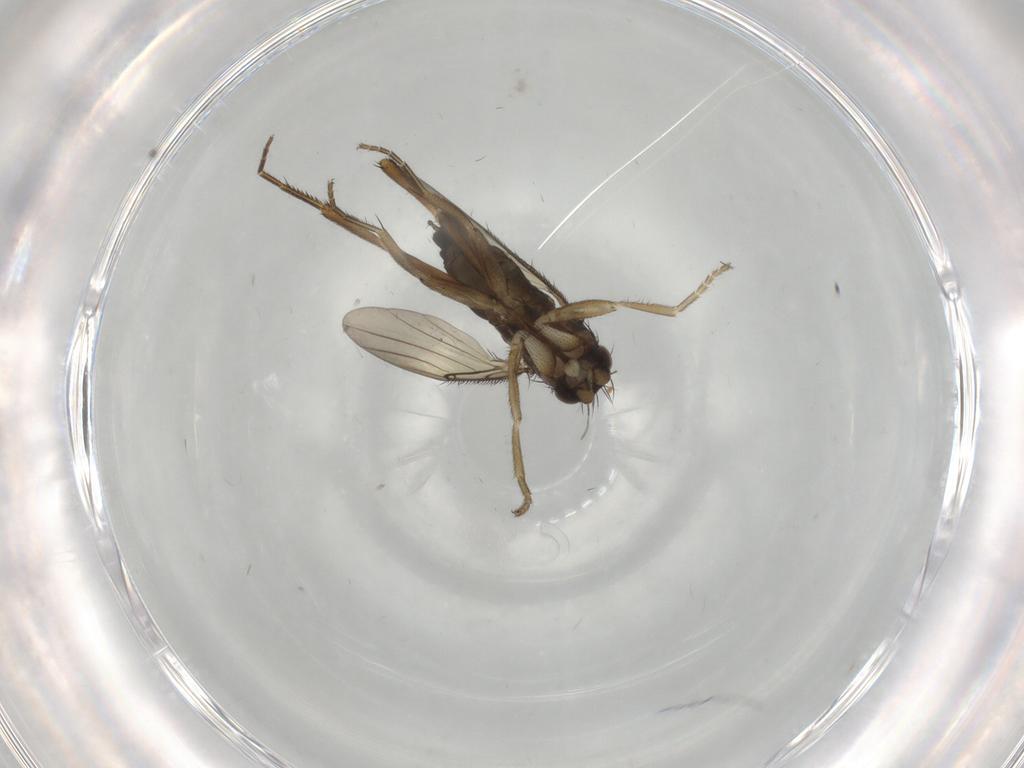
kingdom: Animalia
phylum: Arthropoda
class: Insecta
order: Diptera
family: Phoridae
